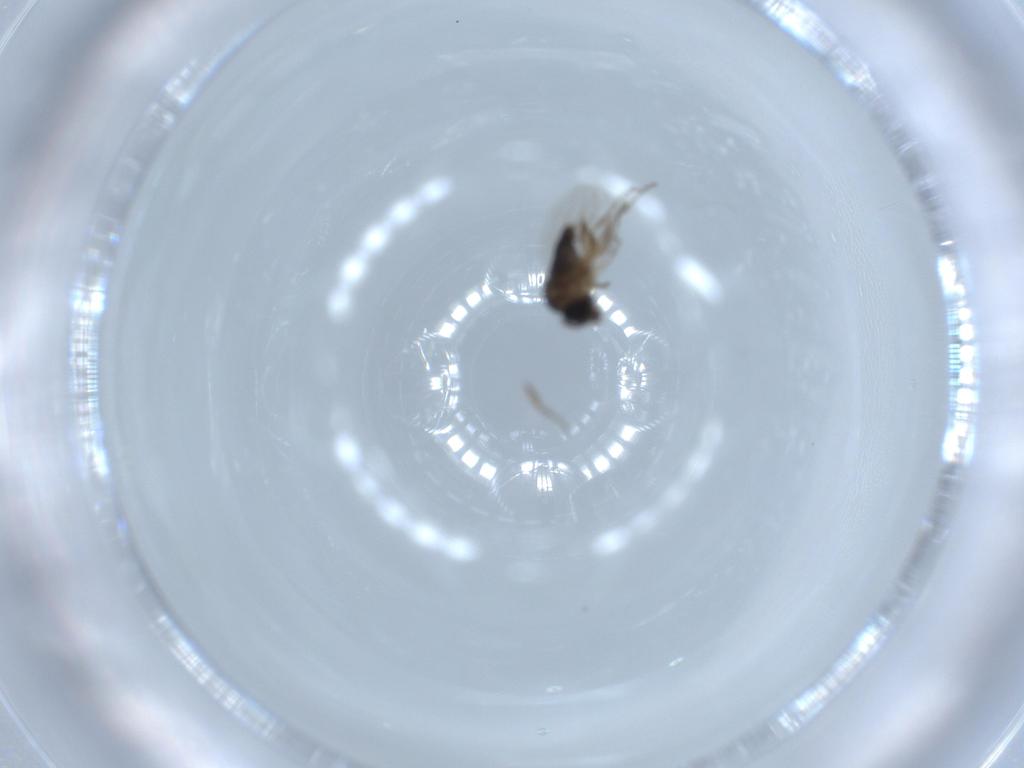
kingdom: Animalia
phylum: Arthropoda
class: Insecta
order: Diptera
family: Phoridae
